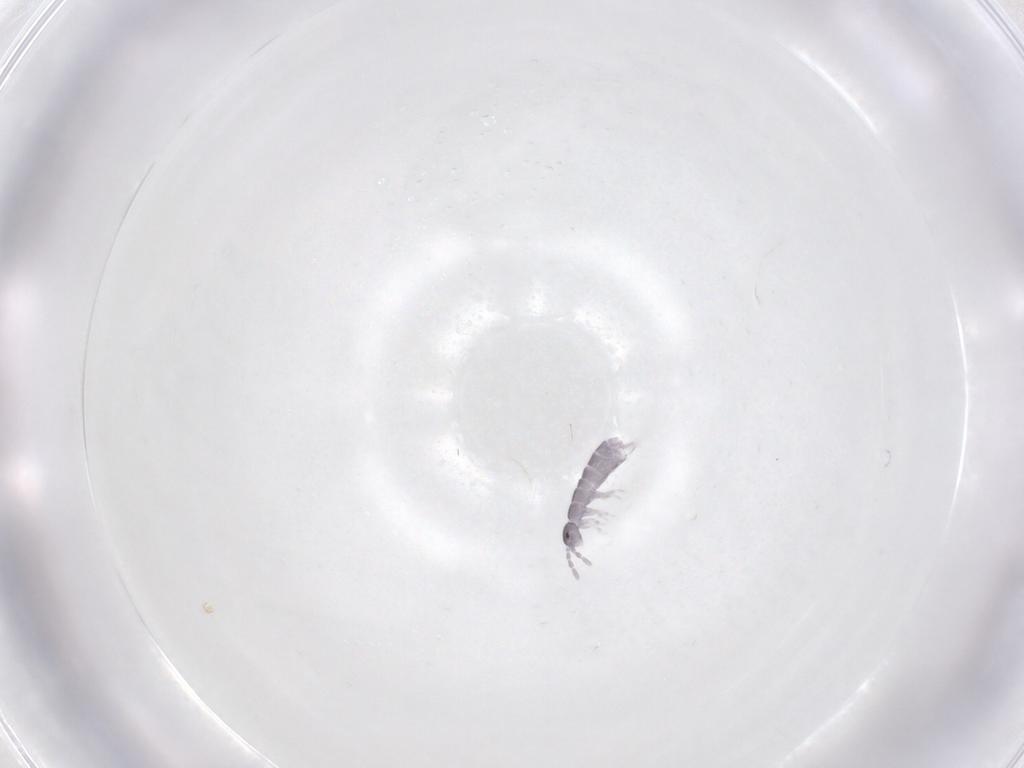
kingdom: Animalia
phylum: Arthropoda
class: Collembola
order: Entomobryomorpha
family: Isotomidae
